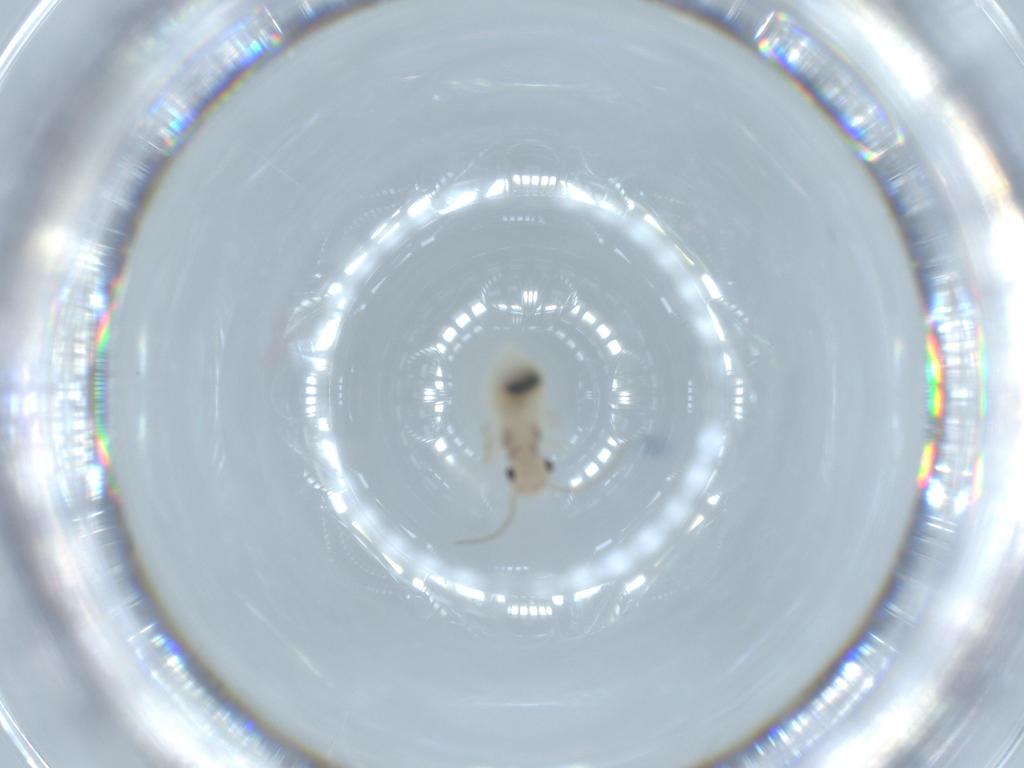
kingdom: Animalia
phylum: Arthropoda
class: Insecta
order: Psocodea
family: Amphipsocidae
